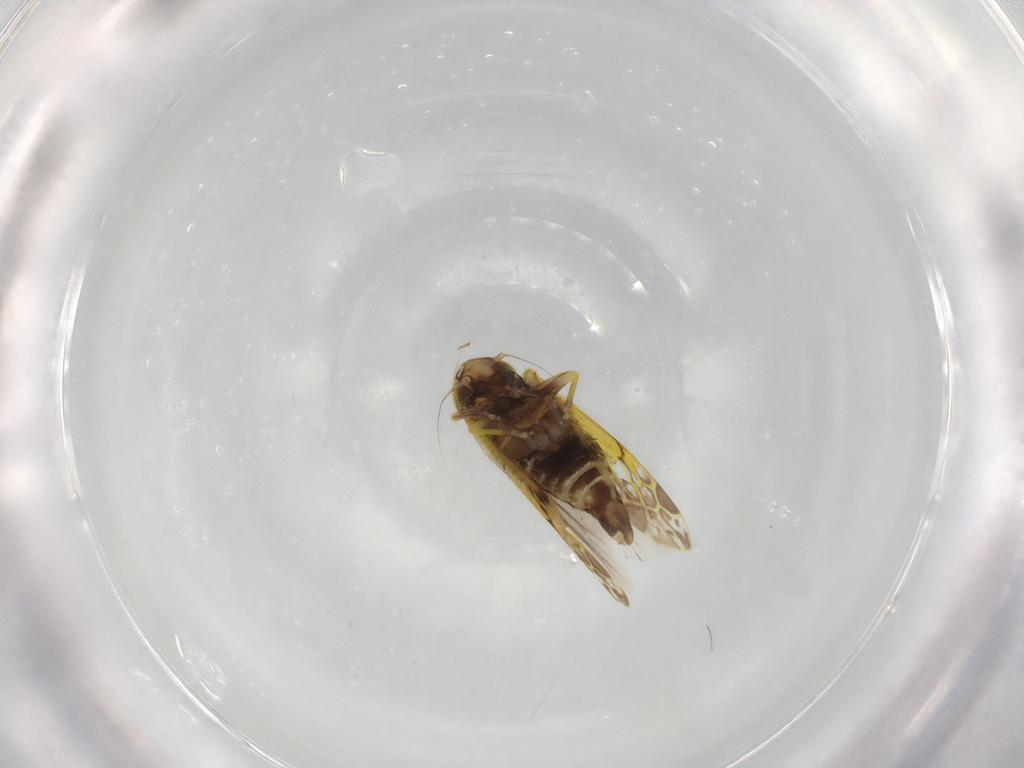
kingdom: Animalia
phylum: Arthropoda
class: Insecta
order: Hemiptera
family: Cicadellidae
